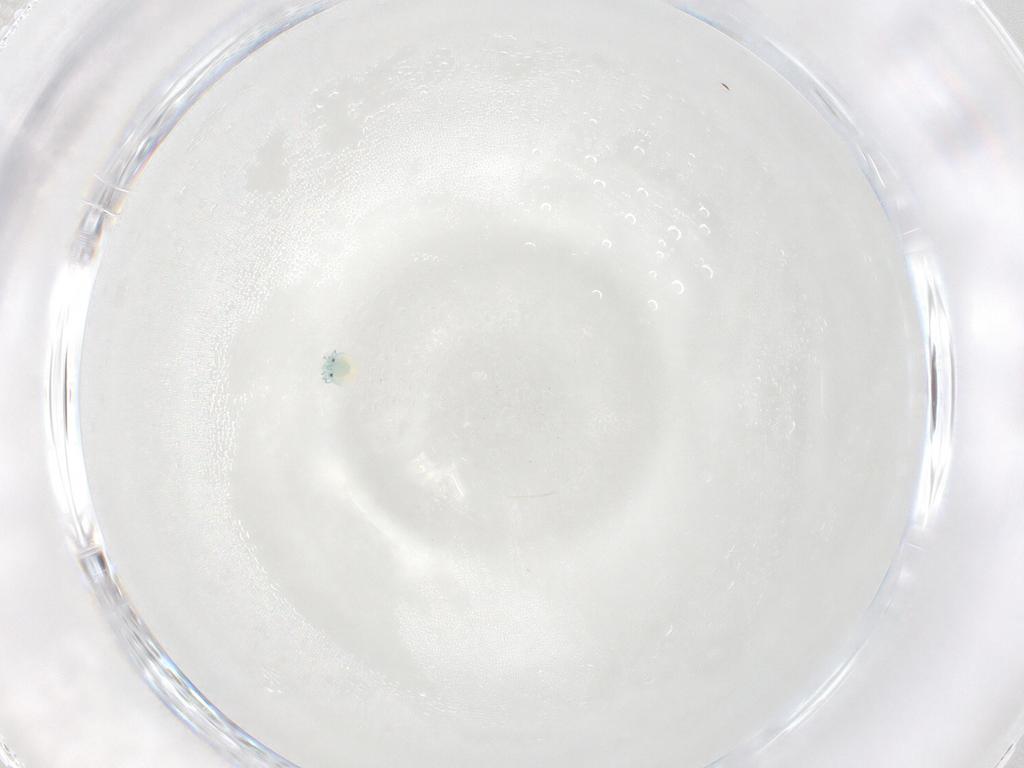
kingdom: Animalia
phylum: Arthropoda
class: Arachnida
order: Trombidiformes
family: Arrenuridae
